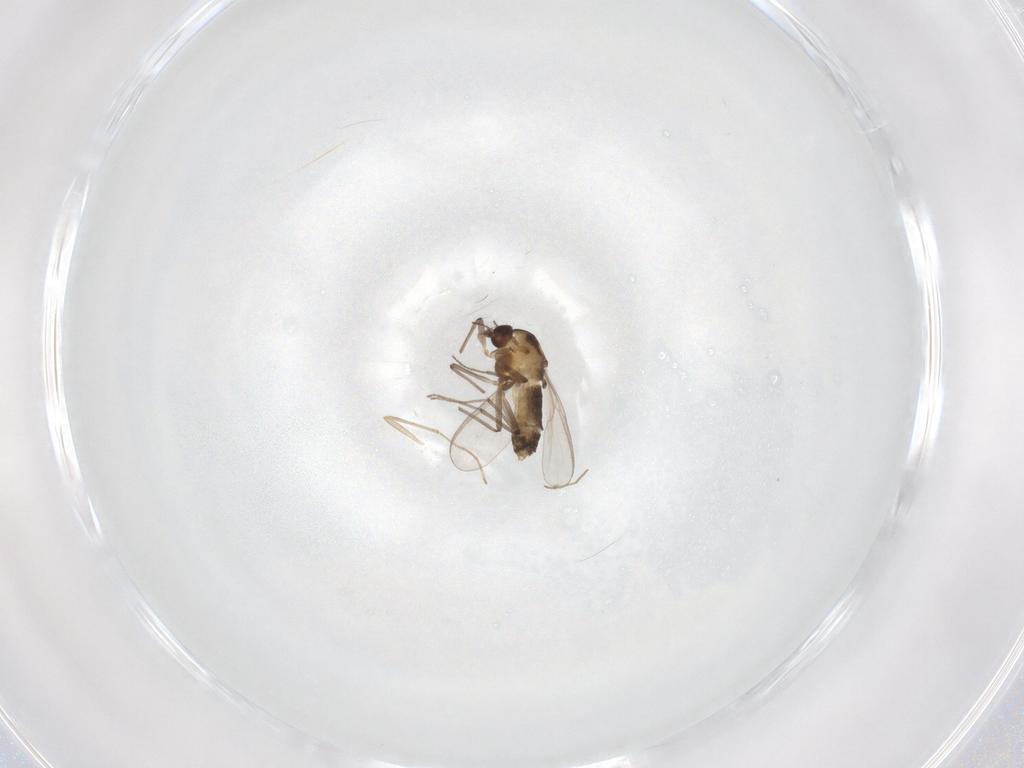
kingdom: Animalia
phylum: Arthropoda
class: Insecta
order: Diptera
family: Chironomidae
